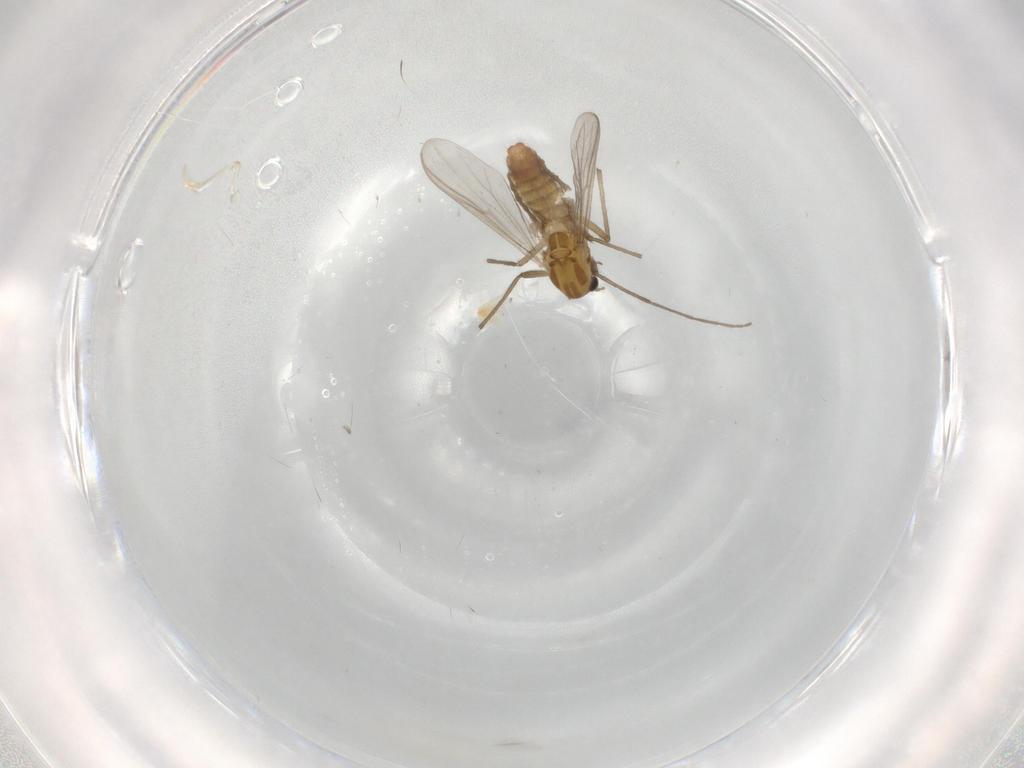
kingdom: Animalia
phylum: Arthropoda
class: Insecta
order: Diptera
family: Chironomidae
